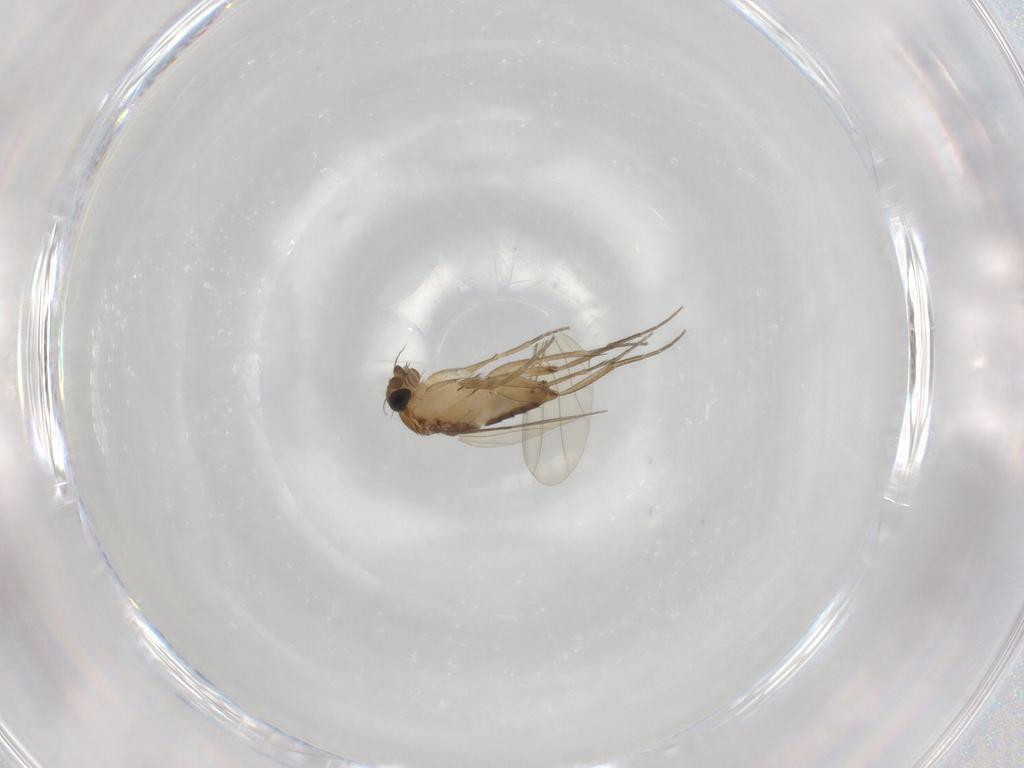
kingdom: Animalia
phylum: Arthropoda
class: Insecta
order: Diptera
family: Phoridae
